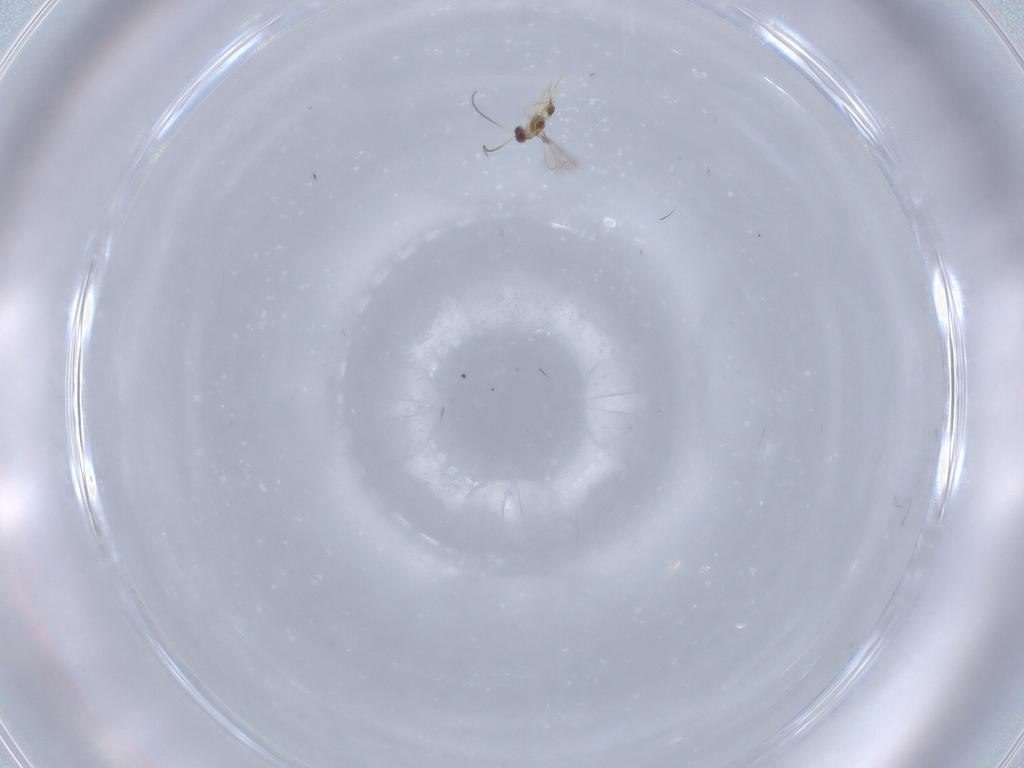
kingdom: Animalia
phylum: Arthropoda
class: Insecta
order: Hymenoptera
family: Mymaridae
